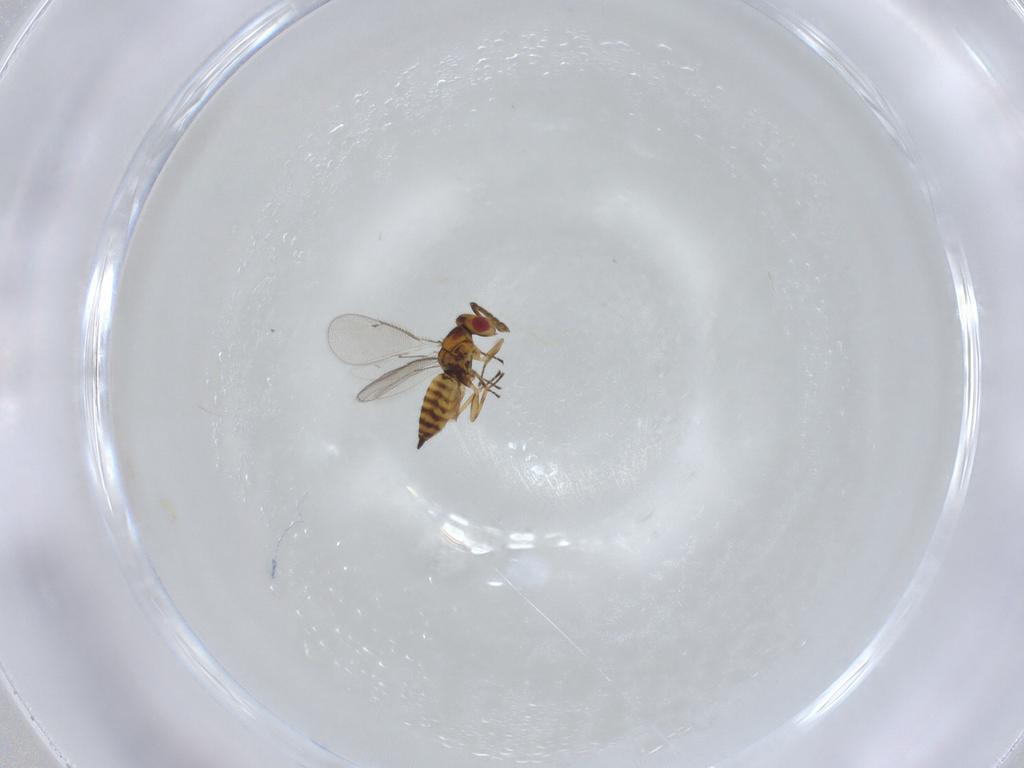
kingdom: Animalia
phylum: Arthropoda
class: Insecta
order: Hymenoptera
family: Eulophidae
